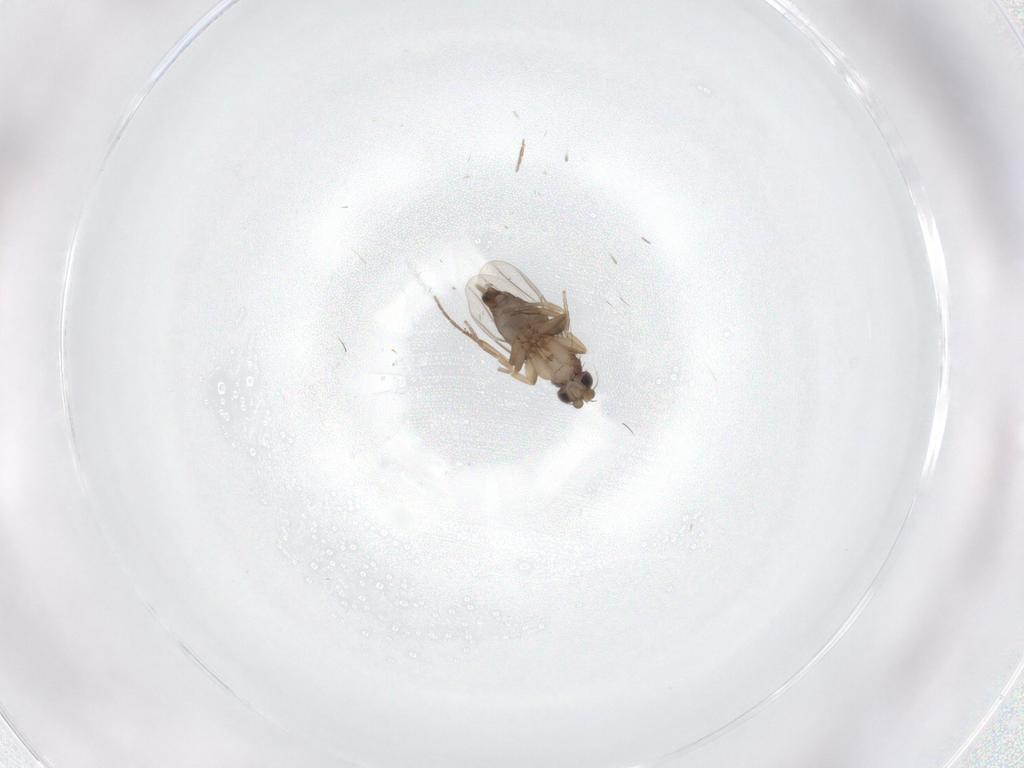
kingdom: Animalia
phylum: Arthropoda
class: Insecta
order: Diptera
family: Phoridae
